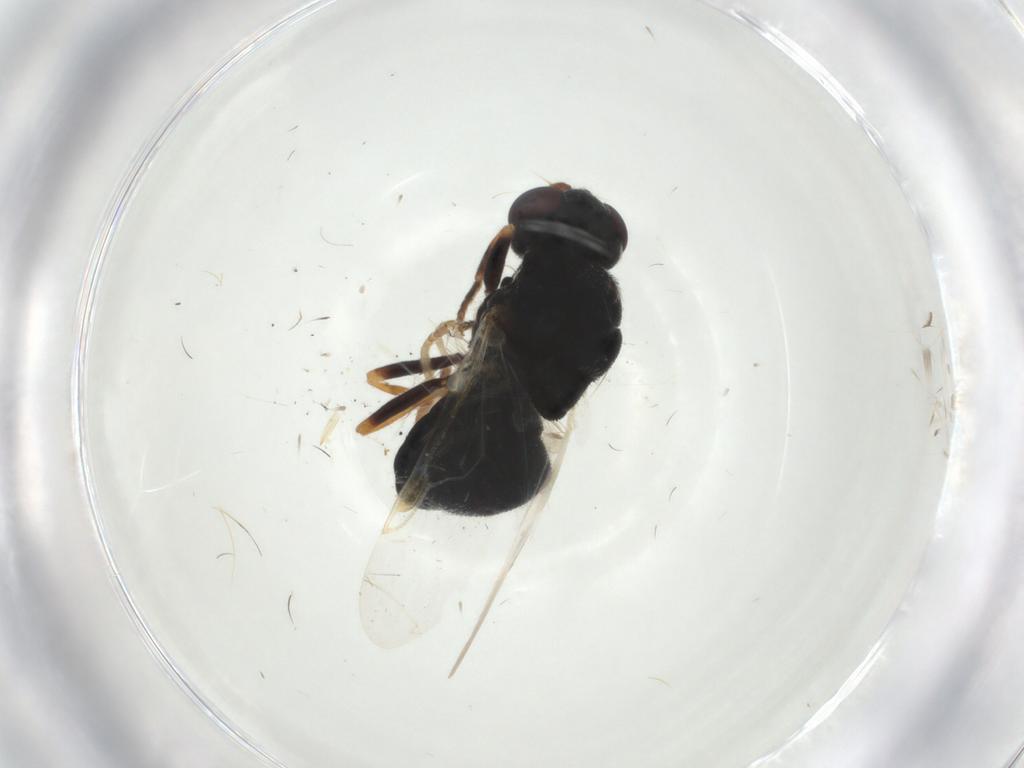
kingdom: Animalia
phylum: Arthropoda
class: Insecta
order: Diptera
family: Stratiomyidae
